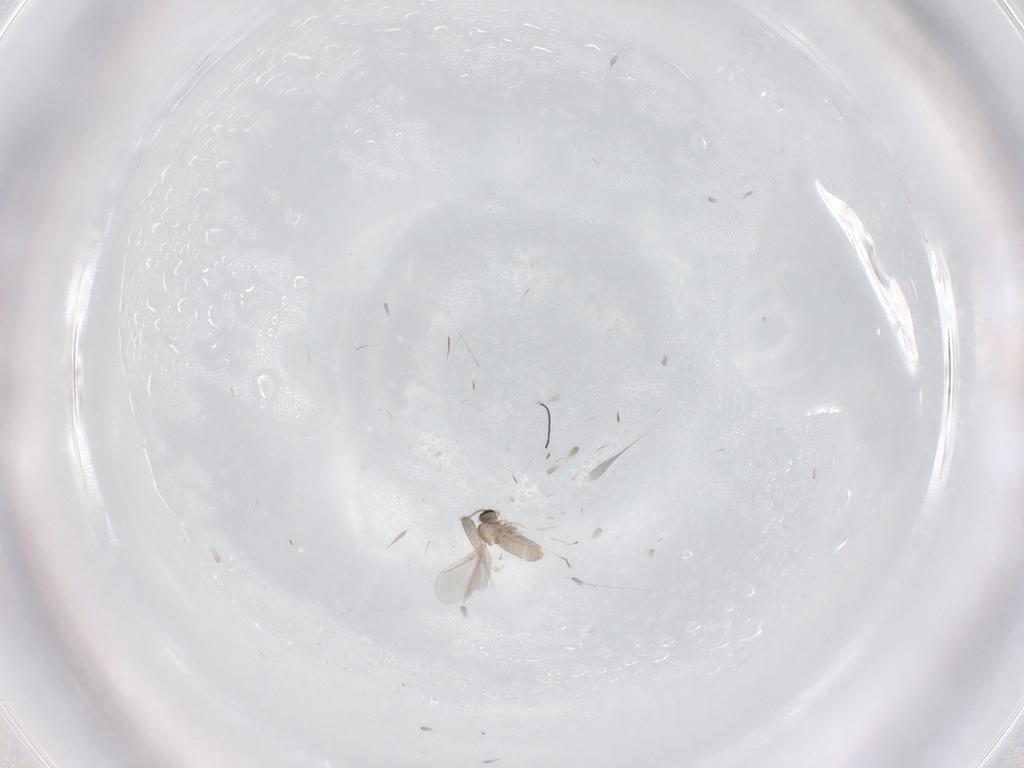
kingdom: Animalia
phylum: Arthropoda
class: Insecta
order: Diptera
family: Cecidomyiidae
